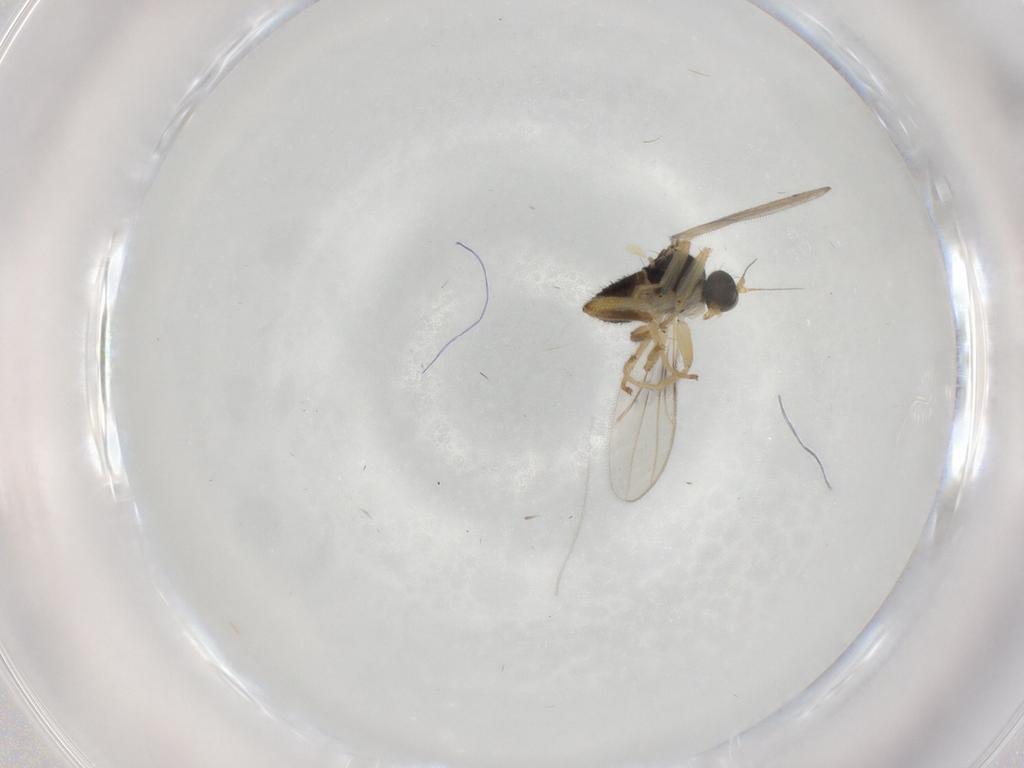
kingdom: Animalia
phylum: Arthropoda
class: Insecta
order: Diptera
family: Hybotidae
